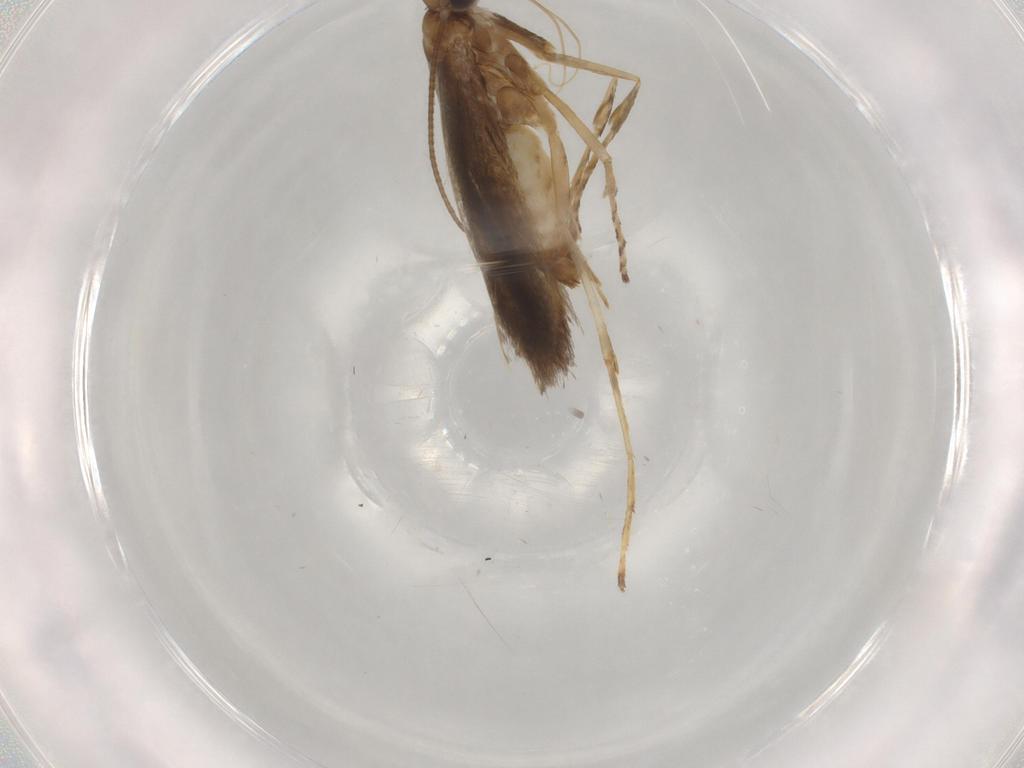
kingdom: Animalia
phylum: Arthropoda
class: Insecta
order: Lepidoptera
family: Gracillariidae
